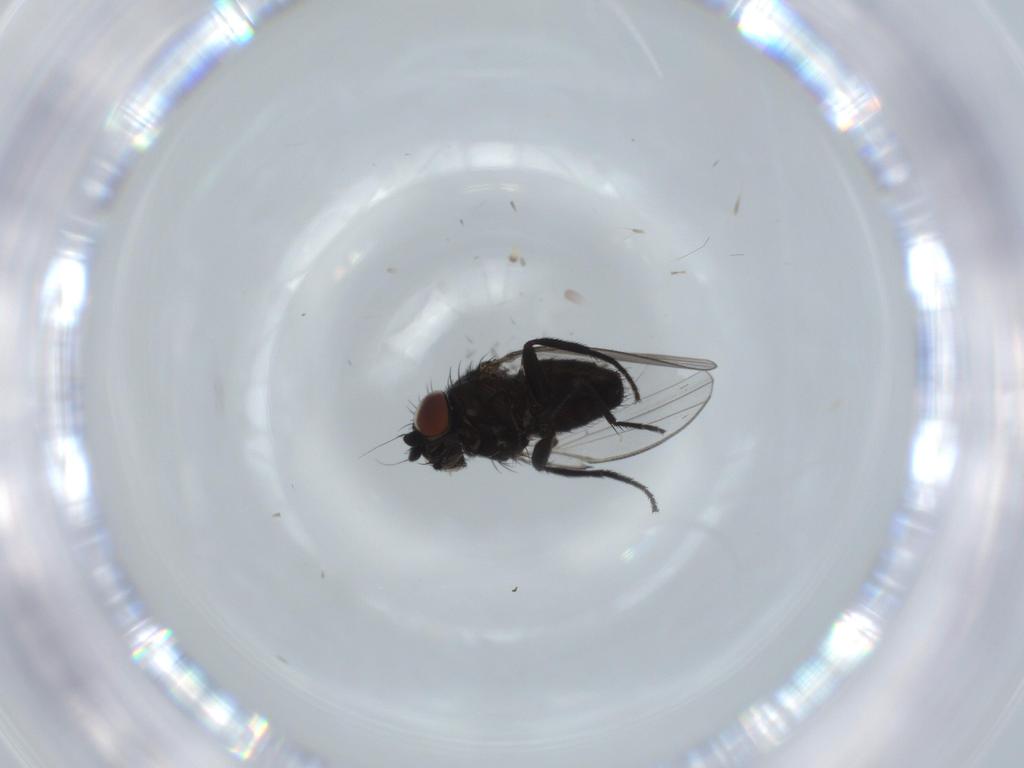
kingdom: Animalia
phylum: Arthropoda
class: Insecta
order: Diptera
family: Milichiidae
